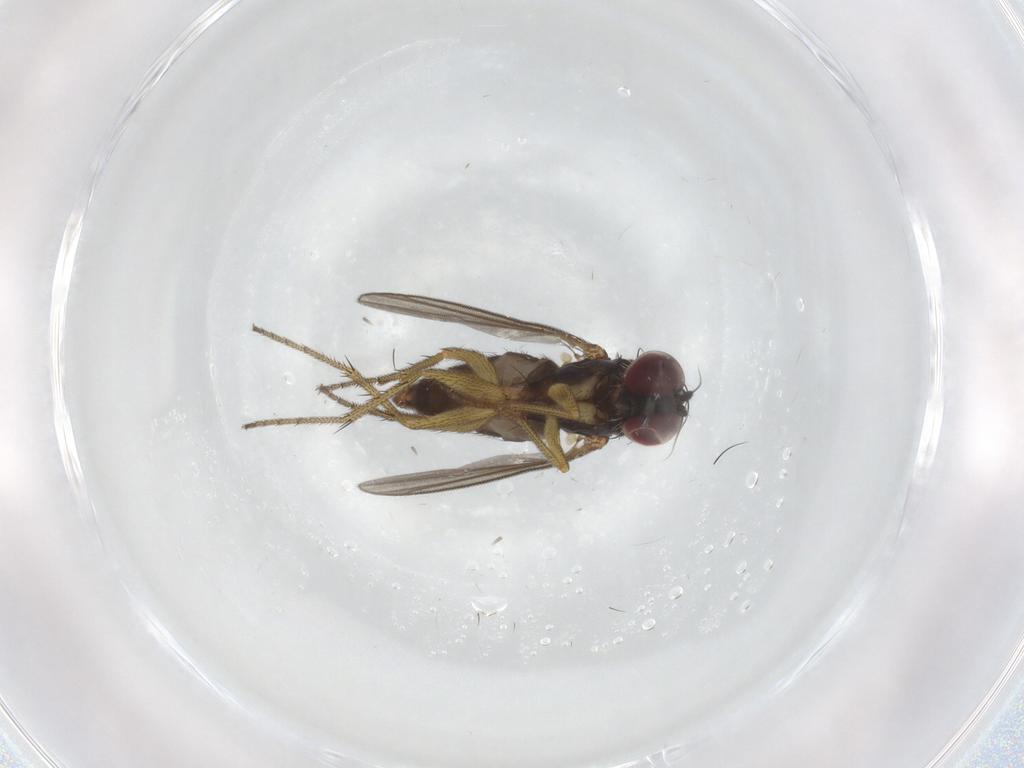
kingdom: Animalia
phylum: Arthropoda
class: Insecta
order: Diptera
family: Dolichopodidae
